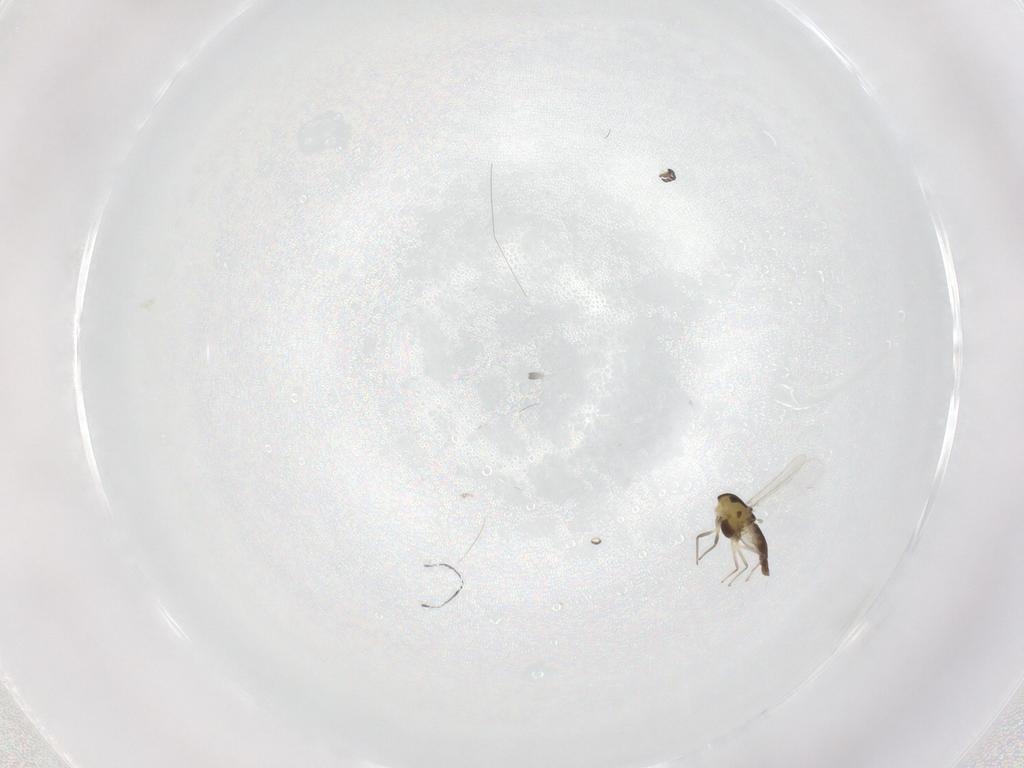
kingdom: Animalia
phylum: Arthropoda
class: Insecta
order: Diptera
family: Chironomidae
